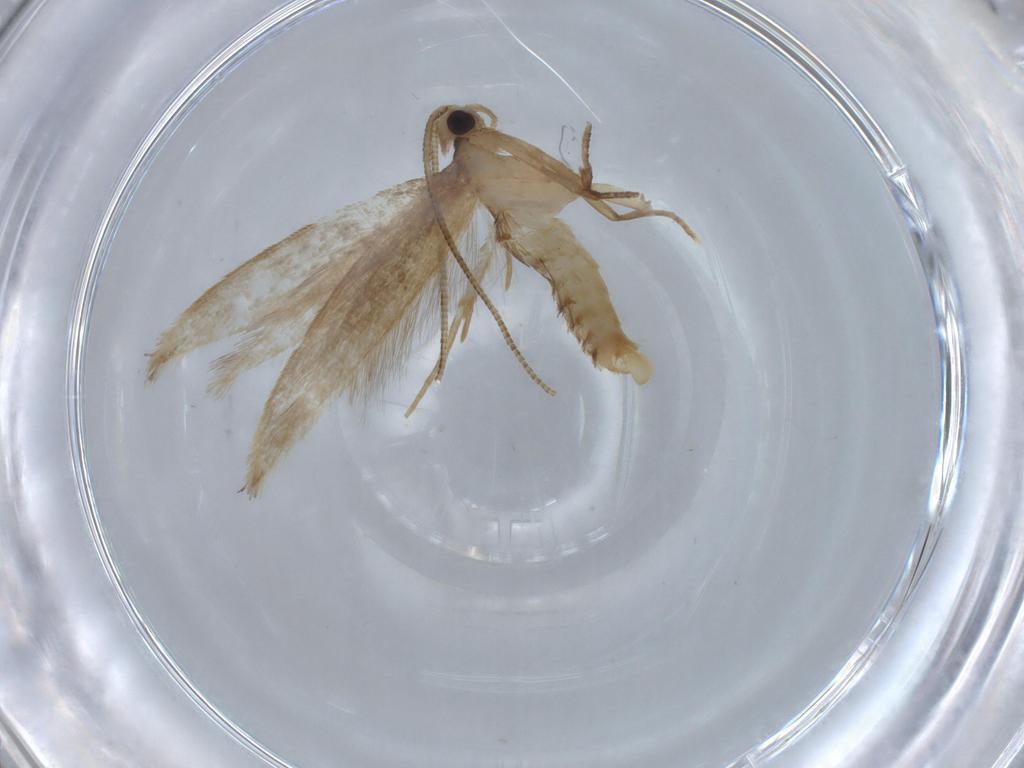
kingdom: Animalia
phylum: Arthropoda
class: Insecta
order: Lepidoptera
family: Tineidae
